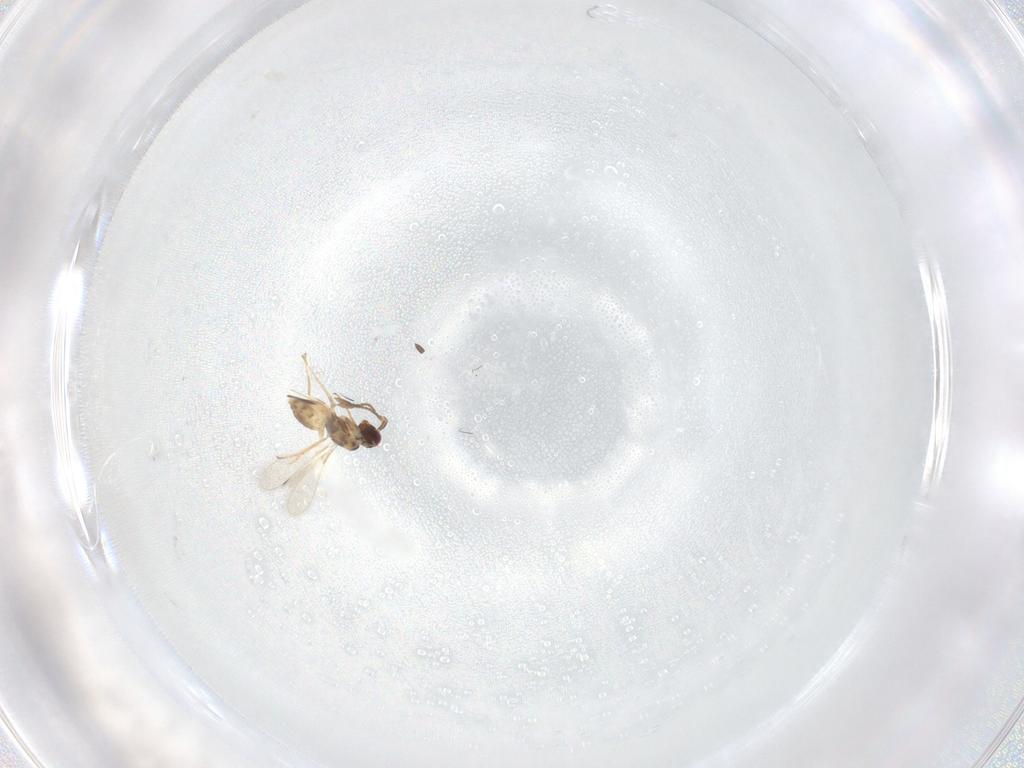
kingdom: Animalia
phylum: Arthropoda
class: Insecta
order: Hymenoptera
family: Mymaridae
